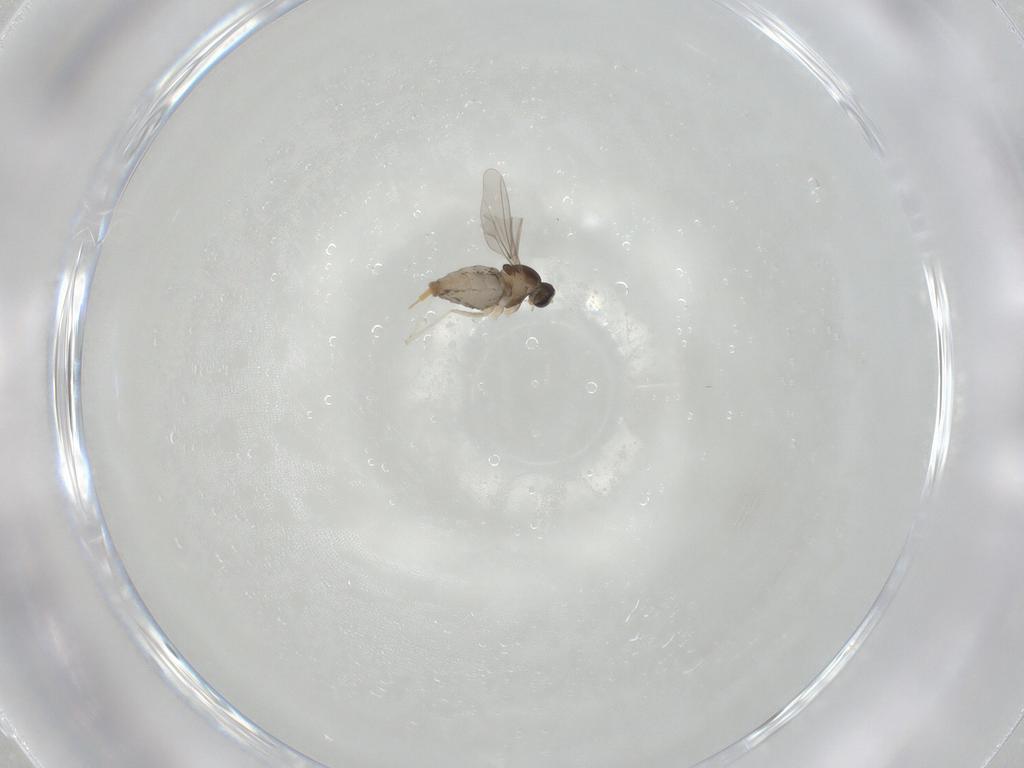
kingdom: Animalia
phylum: Arthropoda
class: Insecta
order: Diptera
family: Cecidomyiidae
